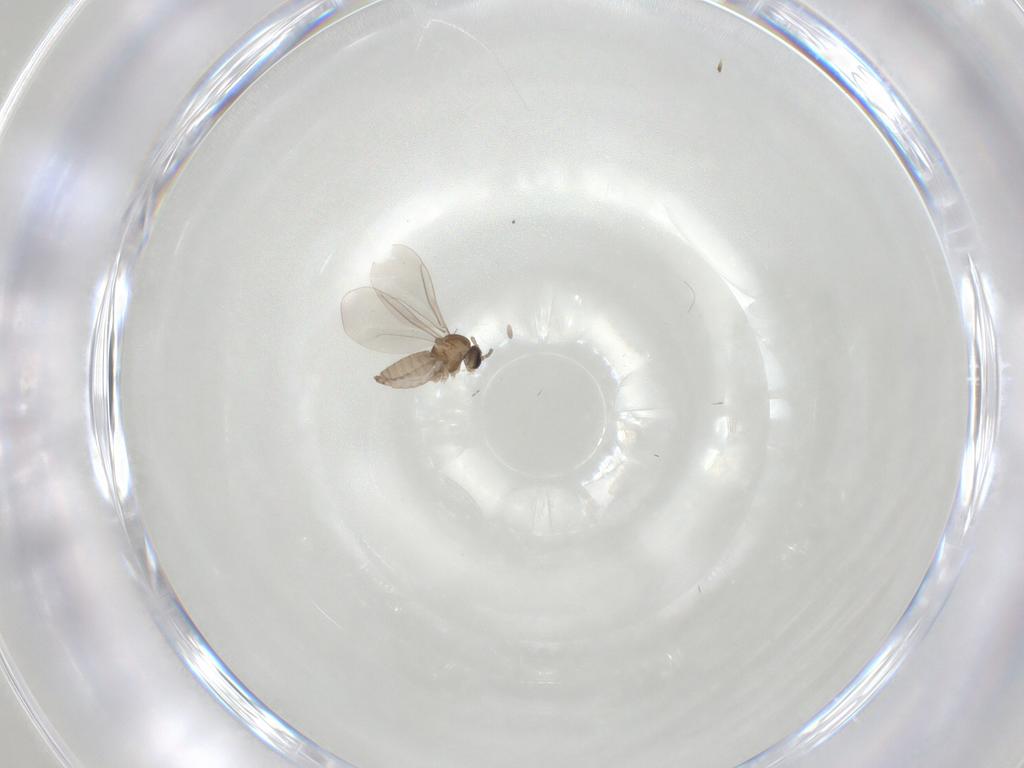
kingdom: Animalia
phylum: Arthropoda
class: Insecta
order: Diptera
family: Cecidomyiidae
